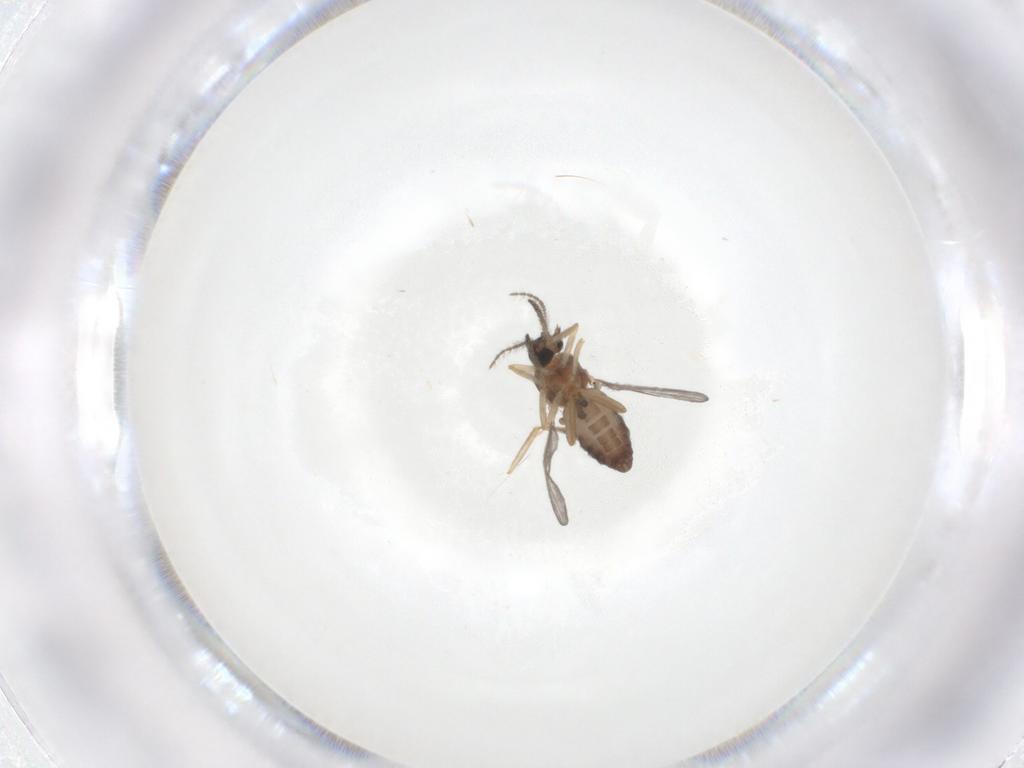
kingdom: Animalia
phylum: Arthropoda
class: Insecta
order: Diptera
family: Ceratopogonidae
